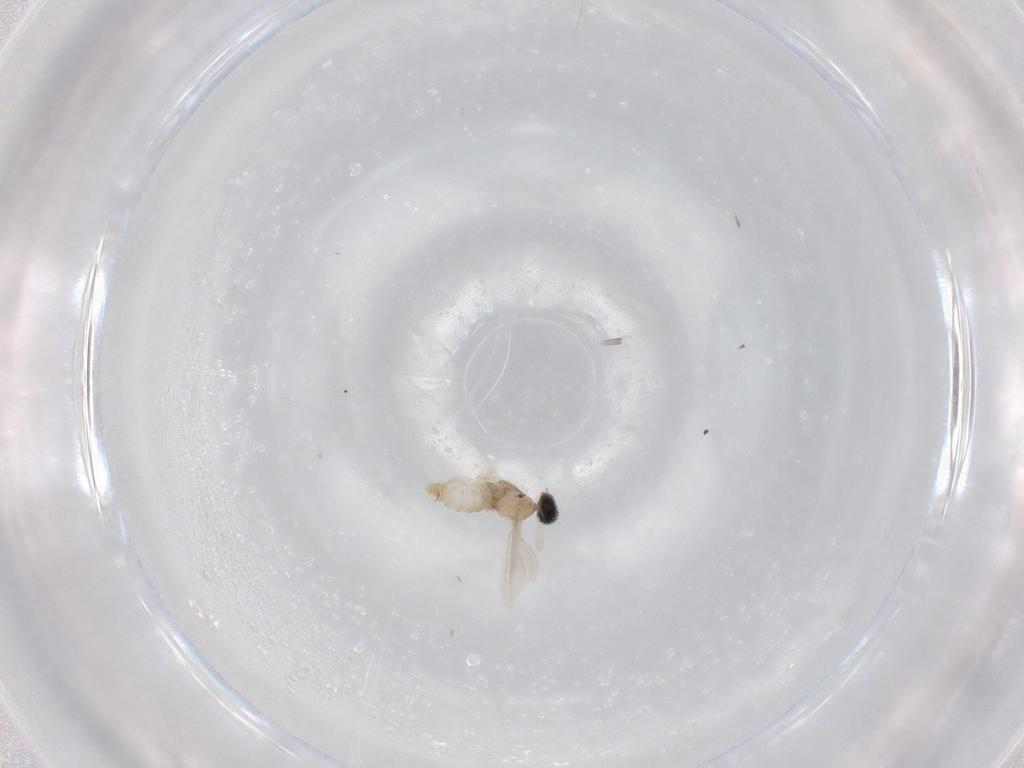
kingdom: Animalia
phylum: Arthropoda
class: Insecta
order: Diptera
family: Cecidomyiidae
